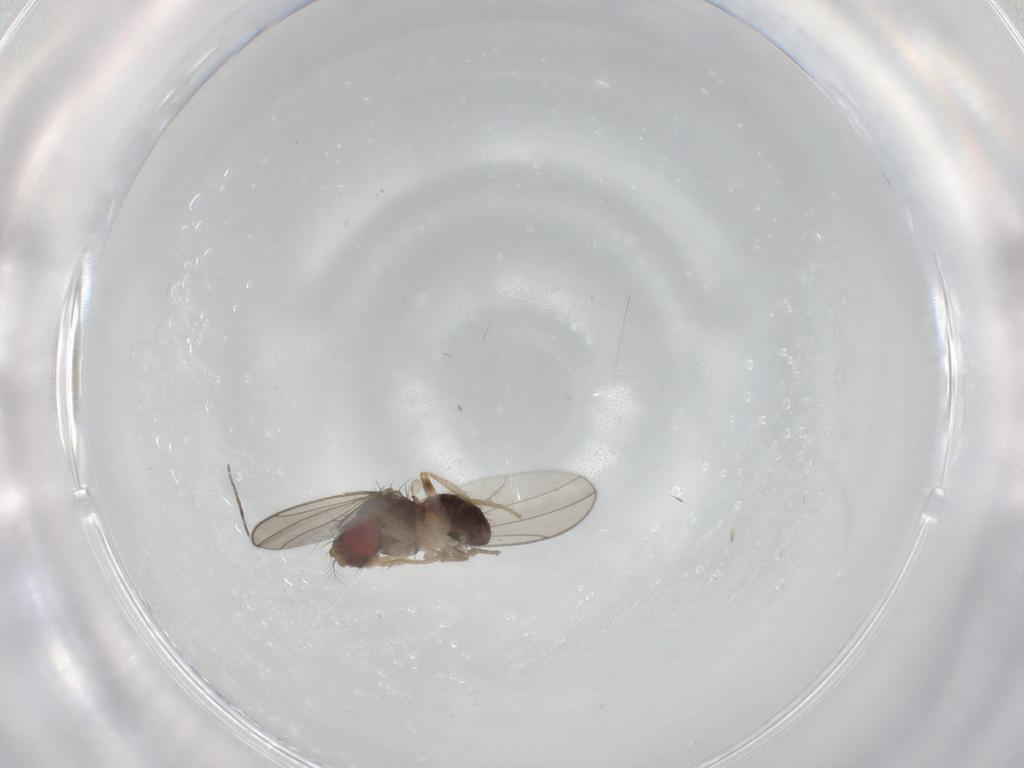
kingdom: Animalia
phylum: Arthropoda
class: Insecta
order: Diptera
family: Drosophilidae
